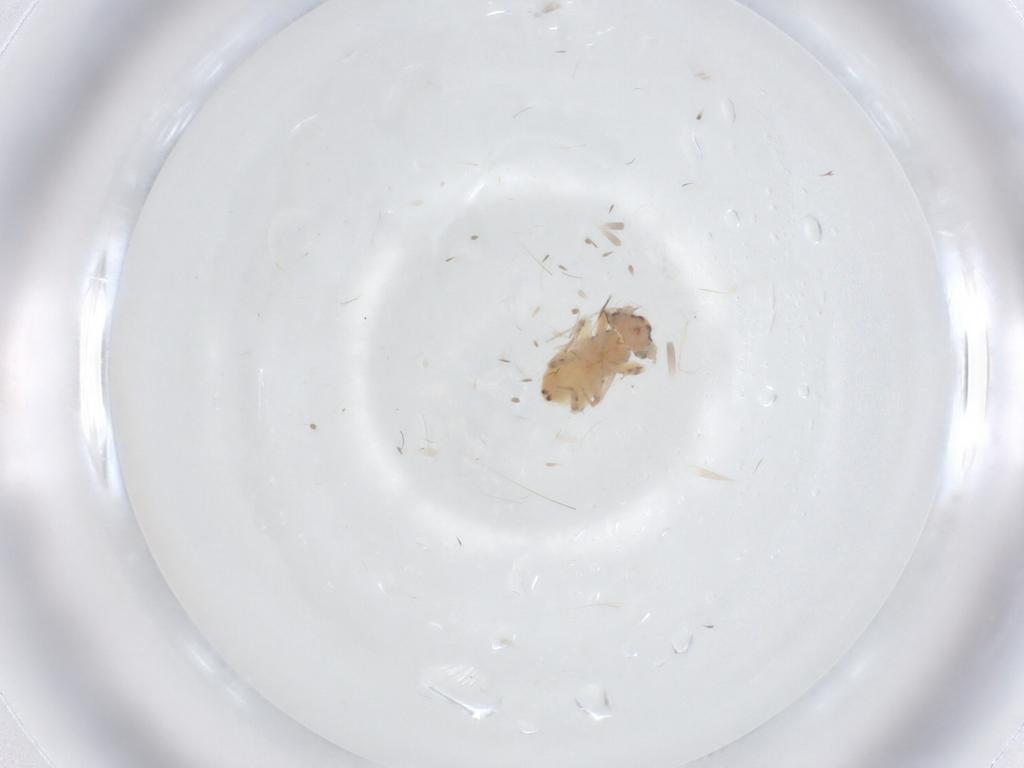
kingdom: Animalia
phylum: Arthropoda
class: Insecta
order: Psocodea
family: Lepidopsocidae
